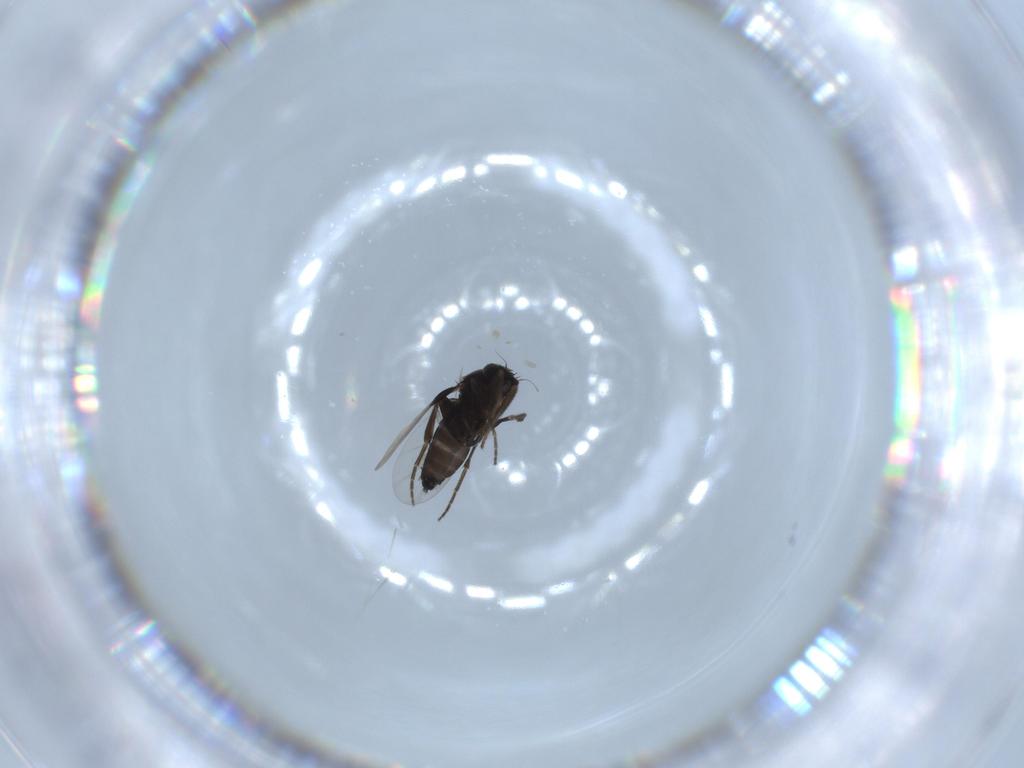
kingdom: Animalia
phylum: Arthropoda
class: Insecta
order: Diptera
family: Phoridae
